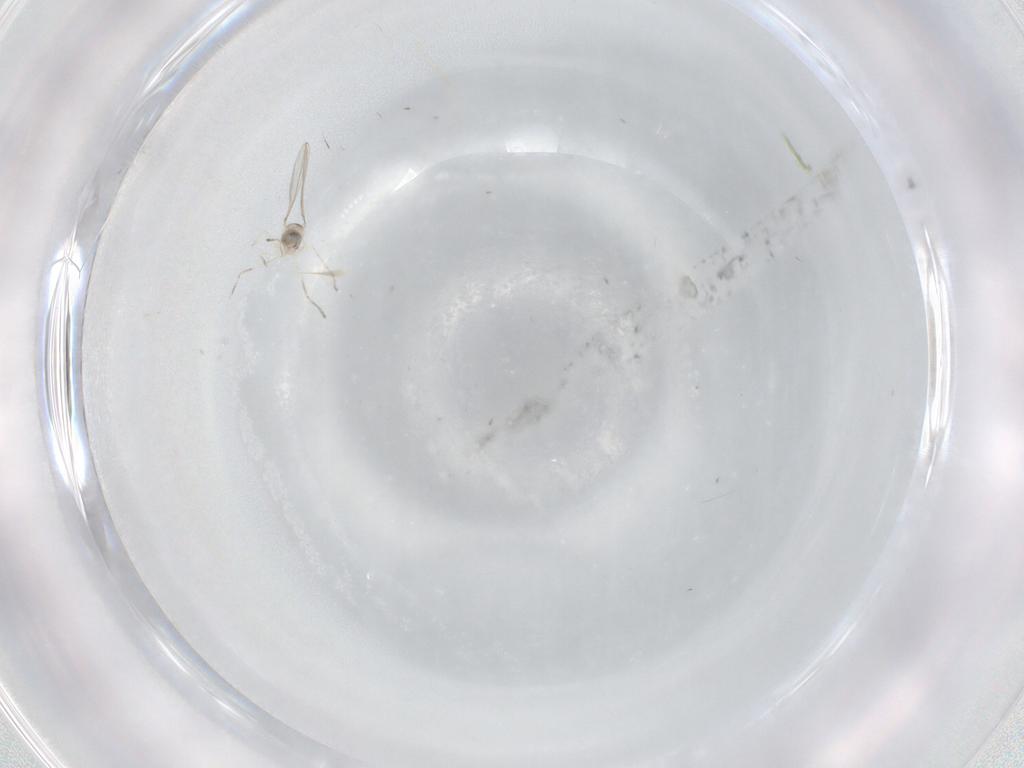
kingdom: Animalia
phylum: Arthropoda
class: Insecta
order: Diptera
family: Cecidomyiidae
